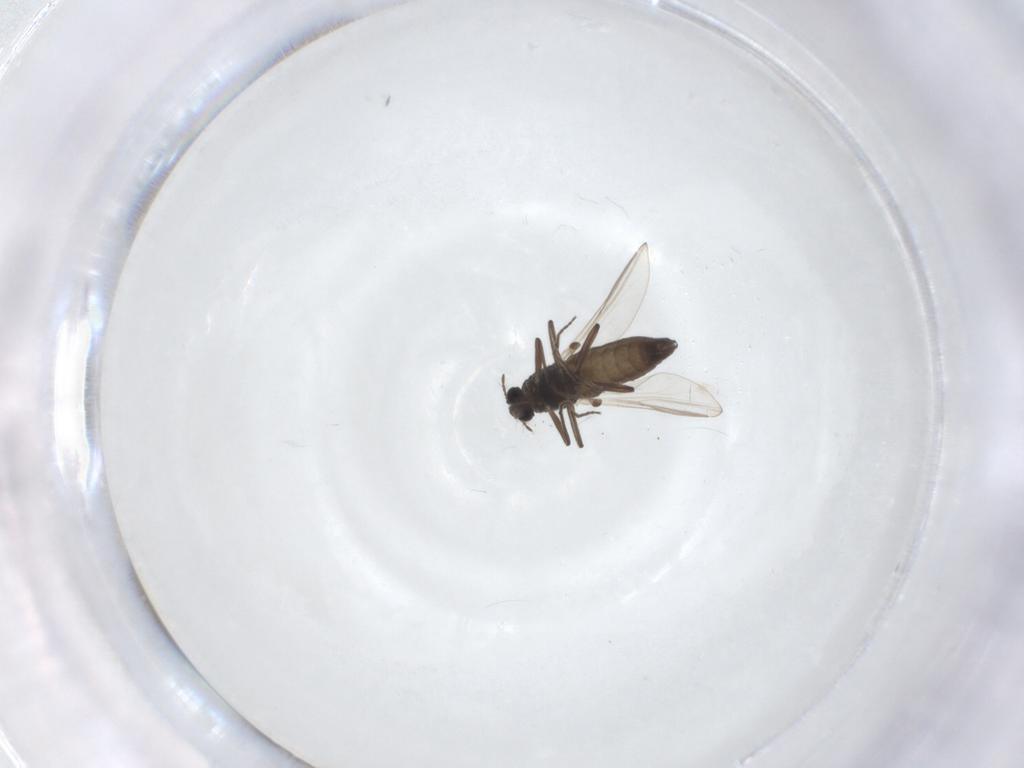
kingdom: Animalia
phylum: Arthropoda
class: Insecta
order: Diptera
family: Chironomidae
